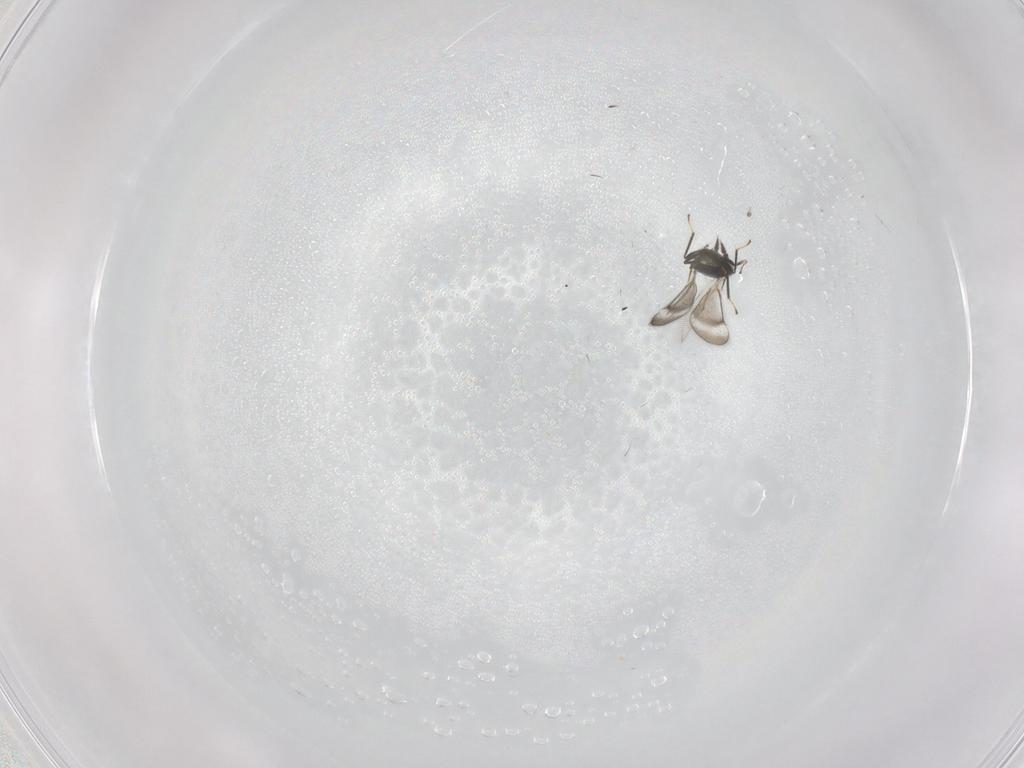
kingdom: Animalia
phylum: Arthropoda
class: Insecta
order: Hymenoptera
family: Eulophidae
